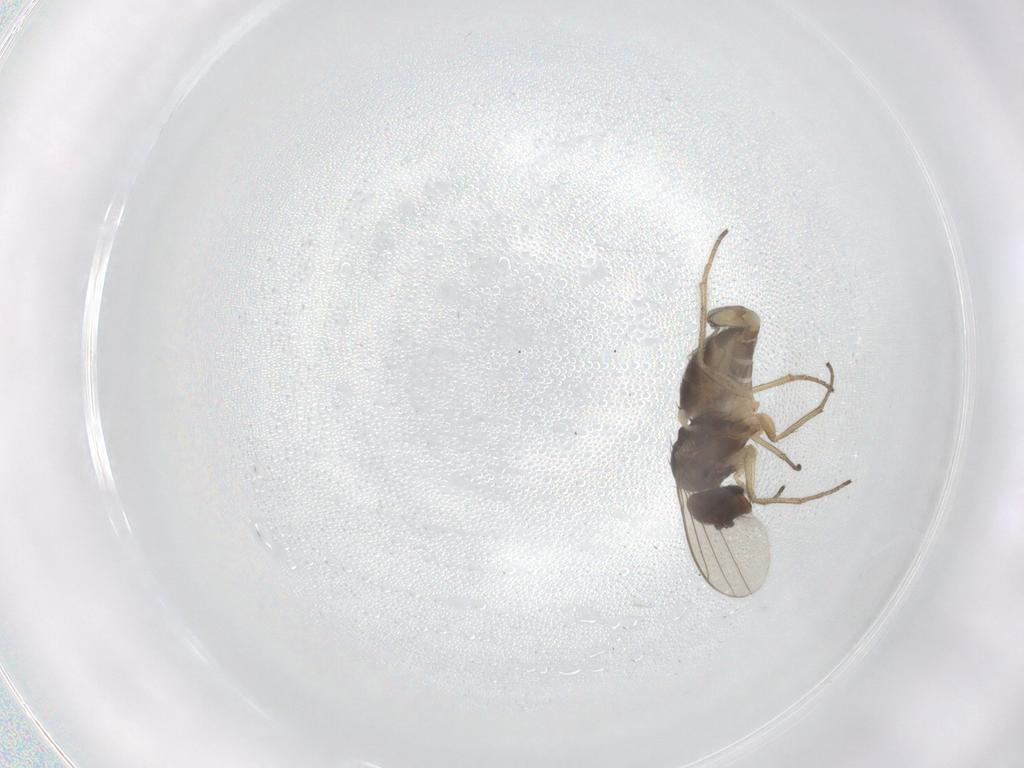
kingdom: Animalia
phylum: Arthropoda
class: Insecta
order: Diptera
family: Dolichopodidae
